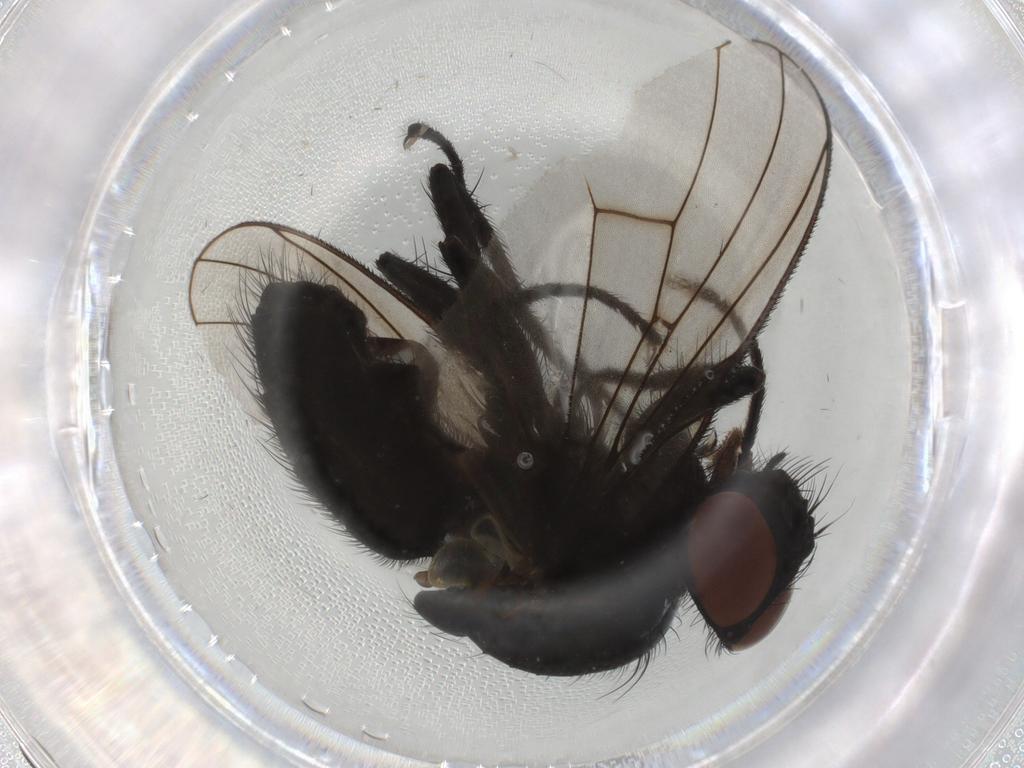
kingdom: Animalia
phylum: Arthropoda
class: Insecta
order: Diptera
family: Muscidae
